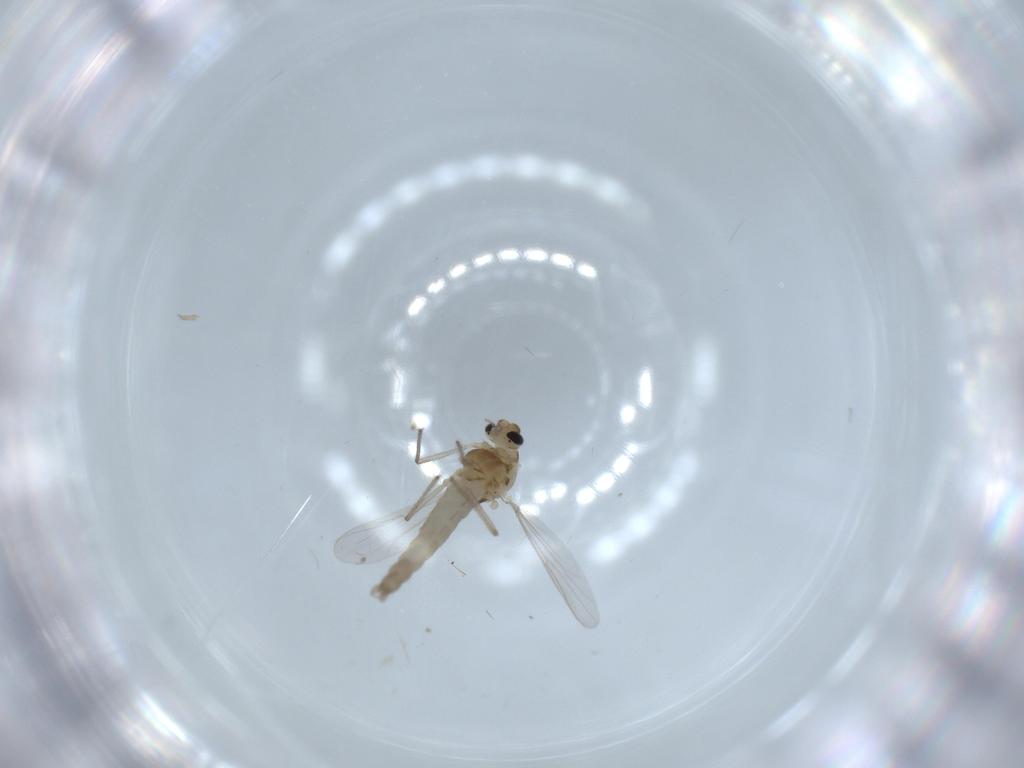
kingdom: Animalia
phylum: Arthropoda
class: Insecta
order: Diptera
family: Chironomidae
